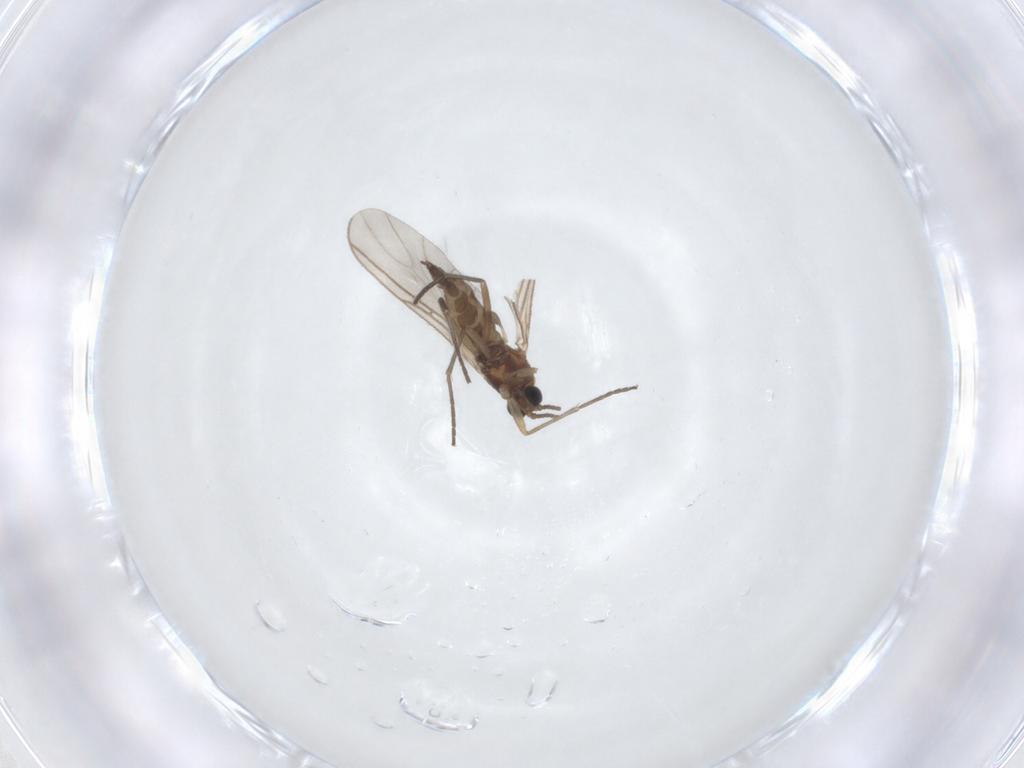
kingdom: Animalia
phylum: Arthropoda
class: Insecta
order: Diptera
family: Sciaridae
